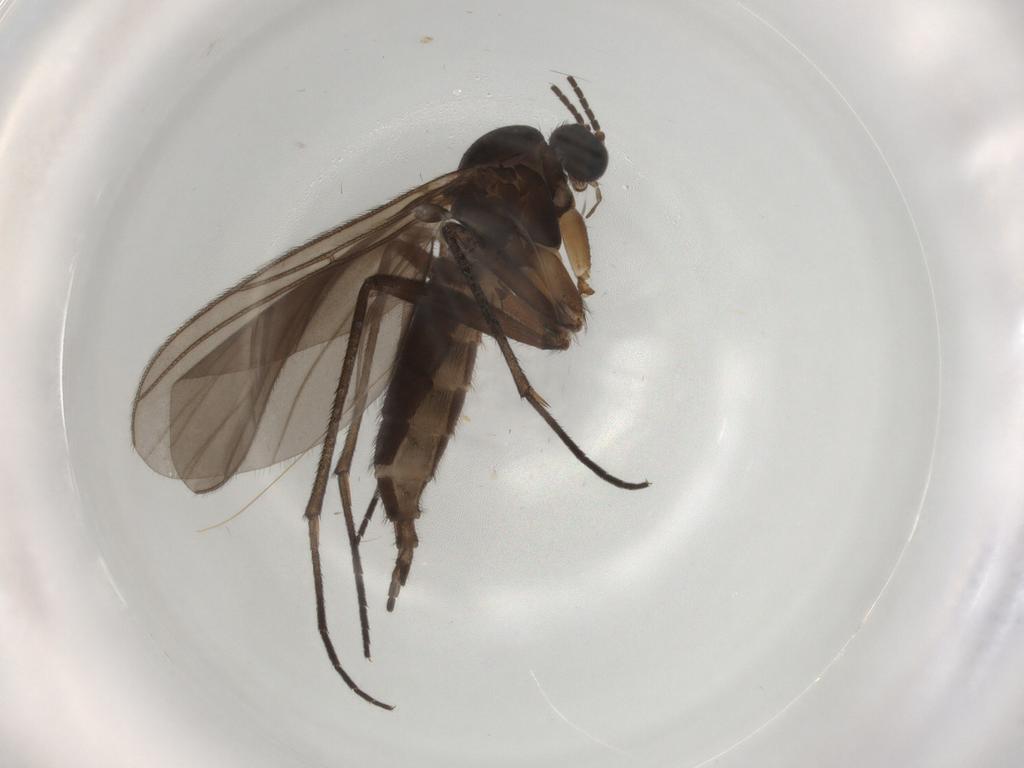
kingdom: Animalia
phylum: Arthropoda
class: Insecta
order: Diptera
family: Sciaridae
